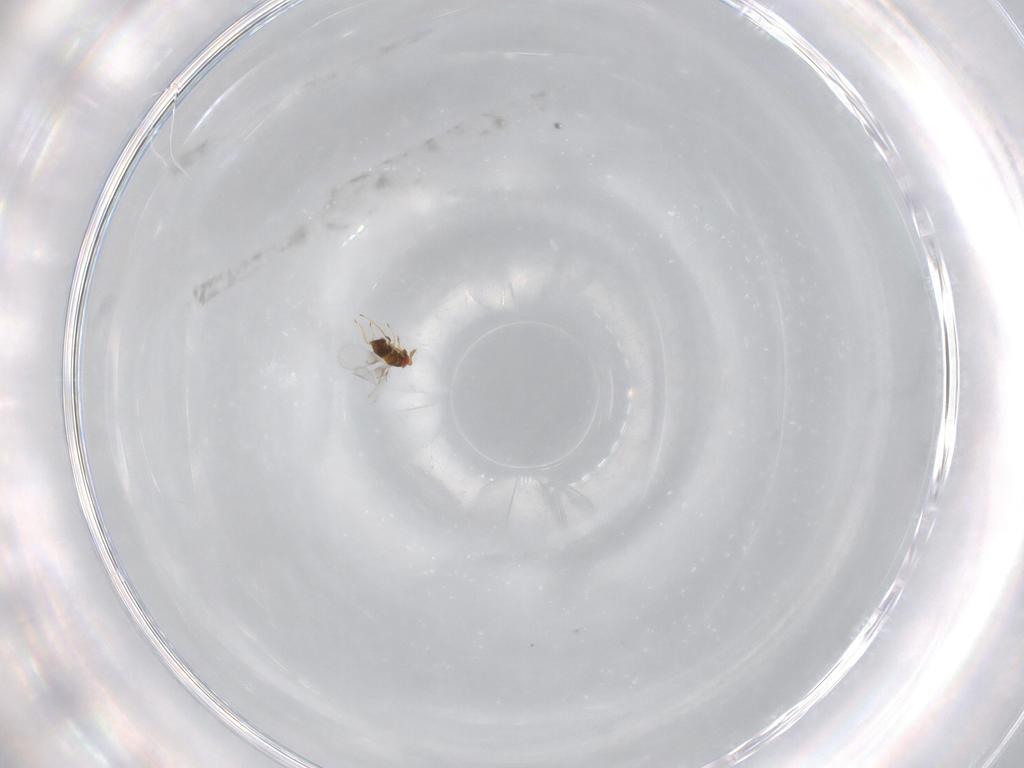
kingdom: Animalia
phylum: Arthropoda
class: Insecta
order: Hymenoptera
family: Trichogrammatidae
